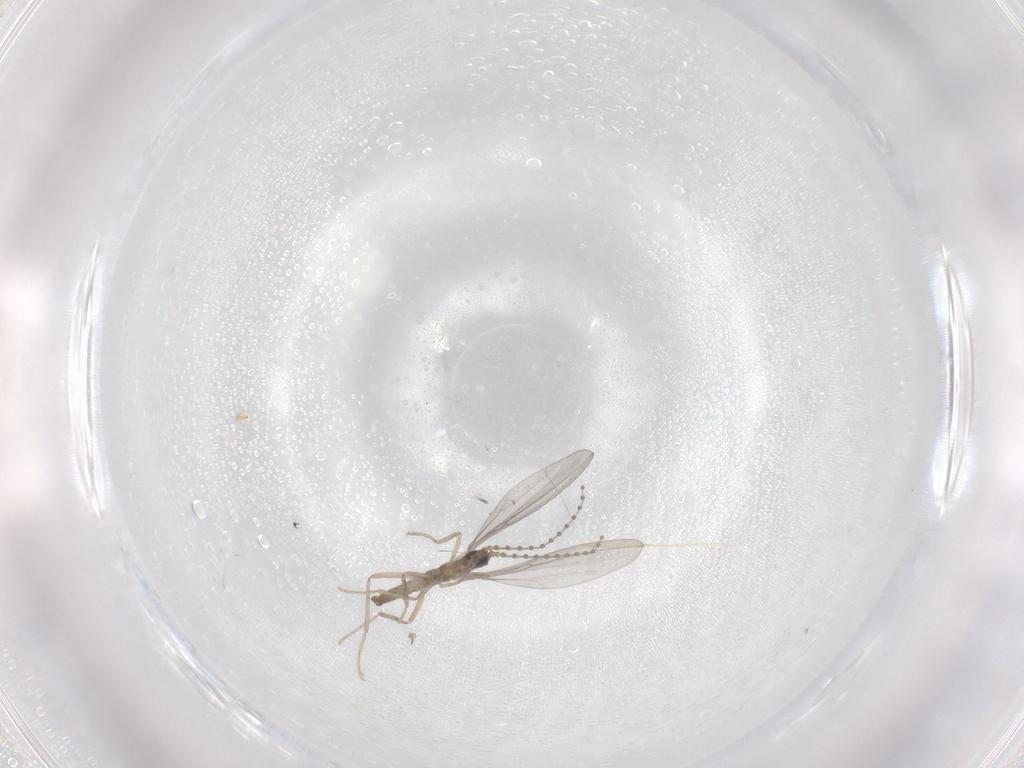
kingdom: Animalia
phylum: Arthropoda
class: Insecta
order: Diptera
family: Cecidomyiidae
